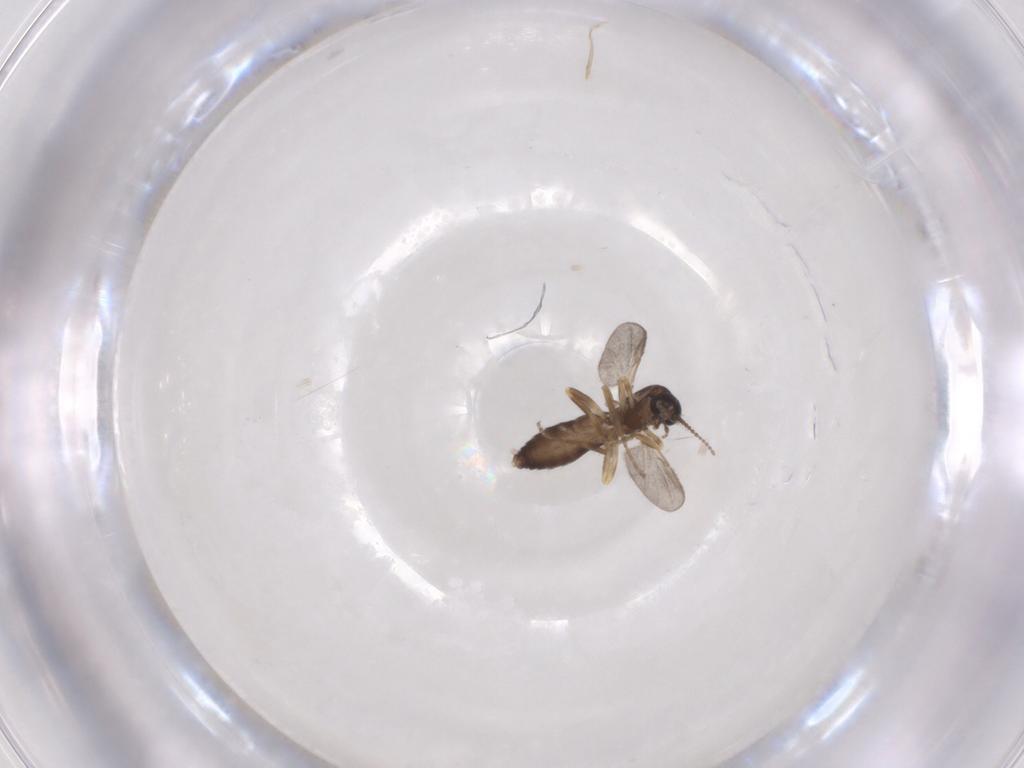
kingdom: Animalia
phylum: Arthropoda
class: Insecta
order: Diptera
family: Ceratopogonidae
